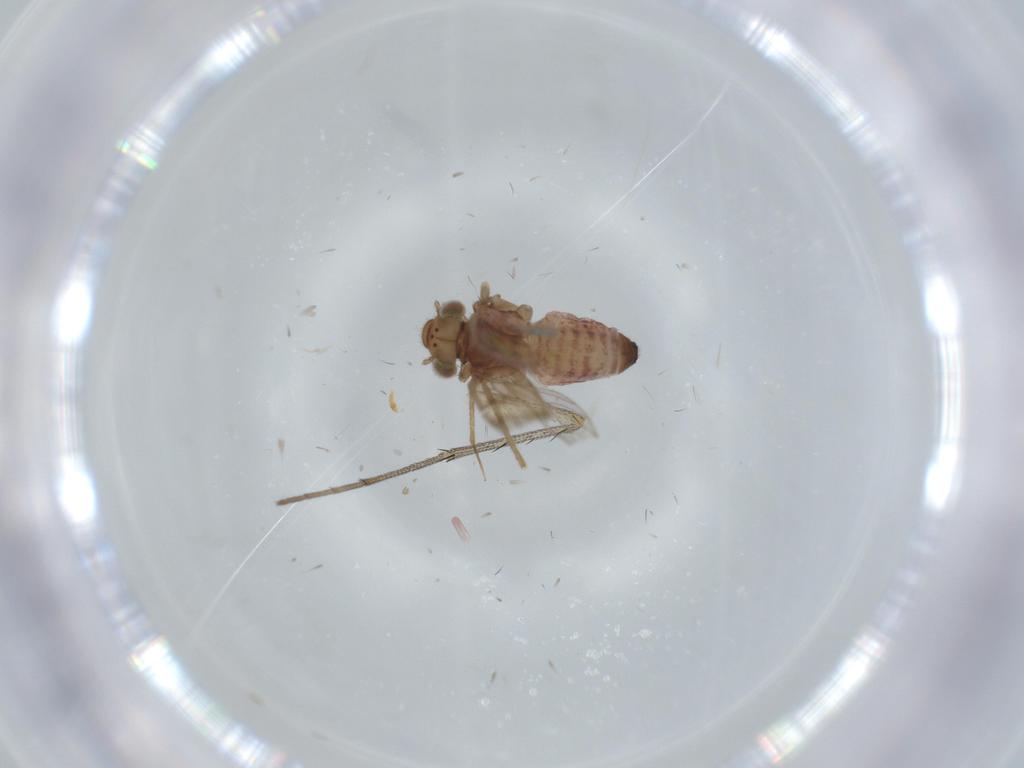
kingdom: Animalia
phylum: Arthropoda
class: Insecta
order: Psocodea
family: Lepidopsocidae
